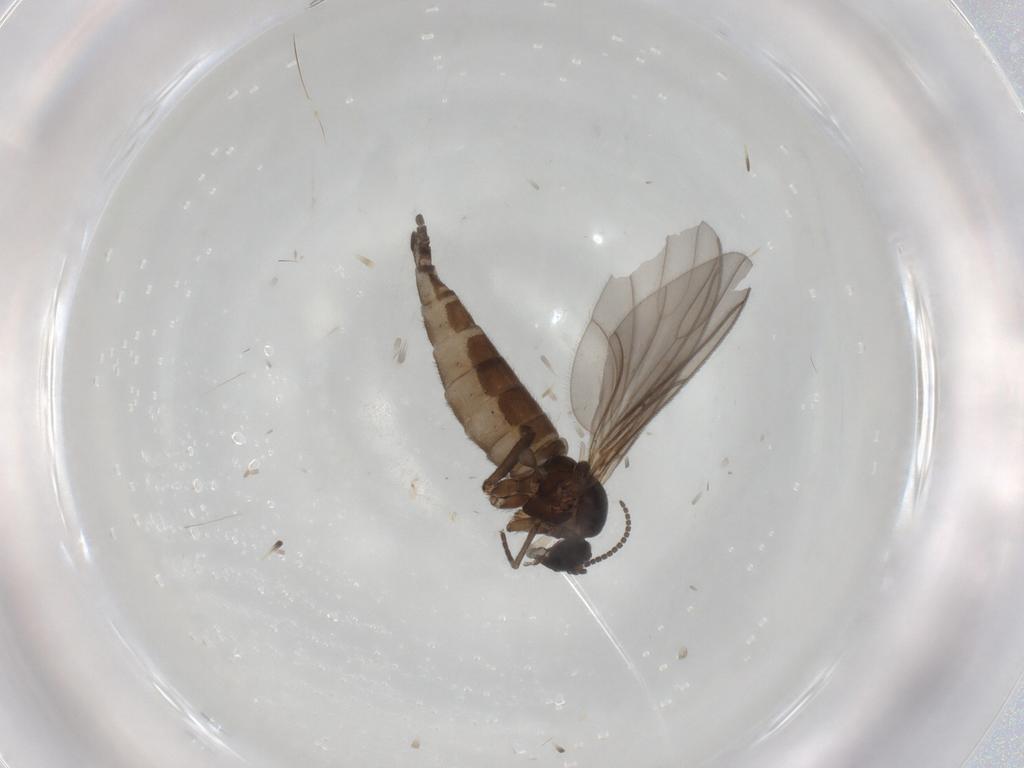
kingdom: Animalia
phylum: Arthropoda
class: Insecta
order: Diptera
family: Sciaridae
